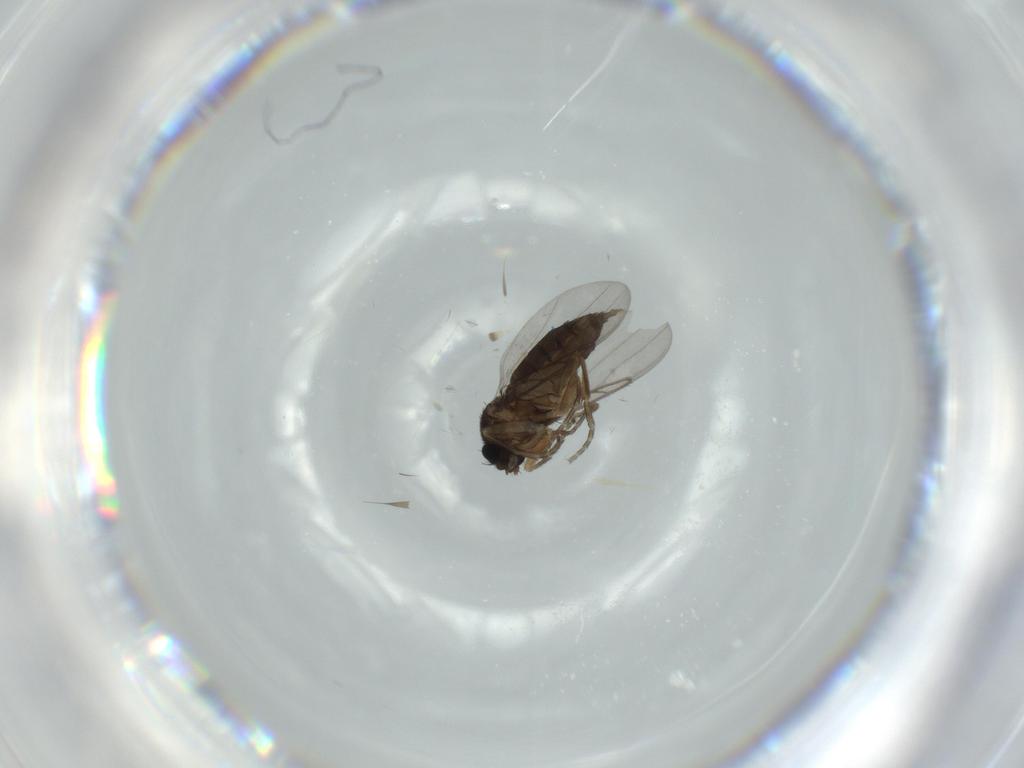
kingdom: Animalia
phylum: Arthropoda
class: Insecta
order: Diptera
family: Phoridae
